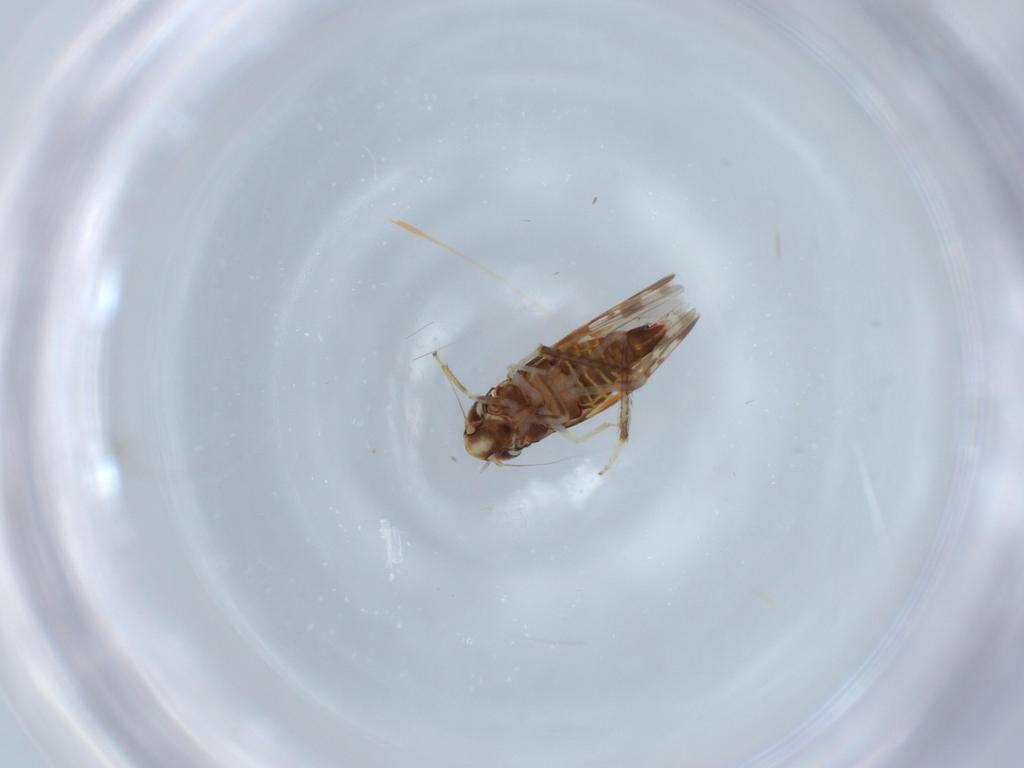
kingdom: Animalia
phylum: Arthropoda
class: Insecta
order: Hemiptera
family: Cicadellidae
